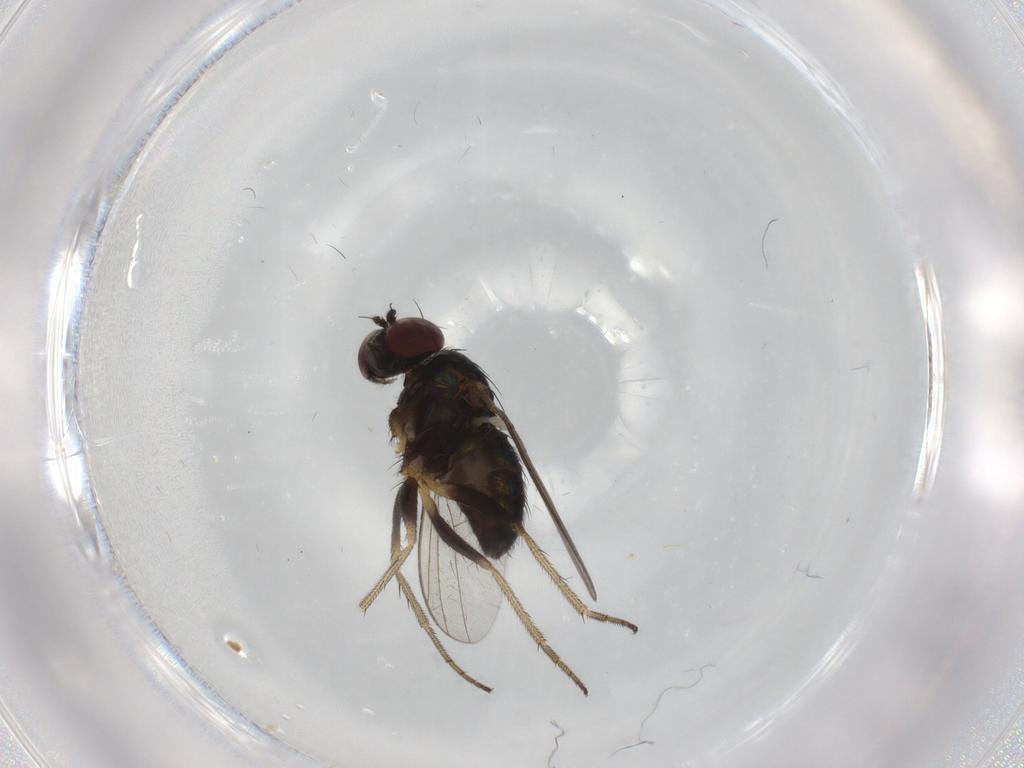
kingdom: Animalia
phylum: Arthropoda
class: Insecta
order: Diptera
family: Dolichopodidae
